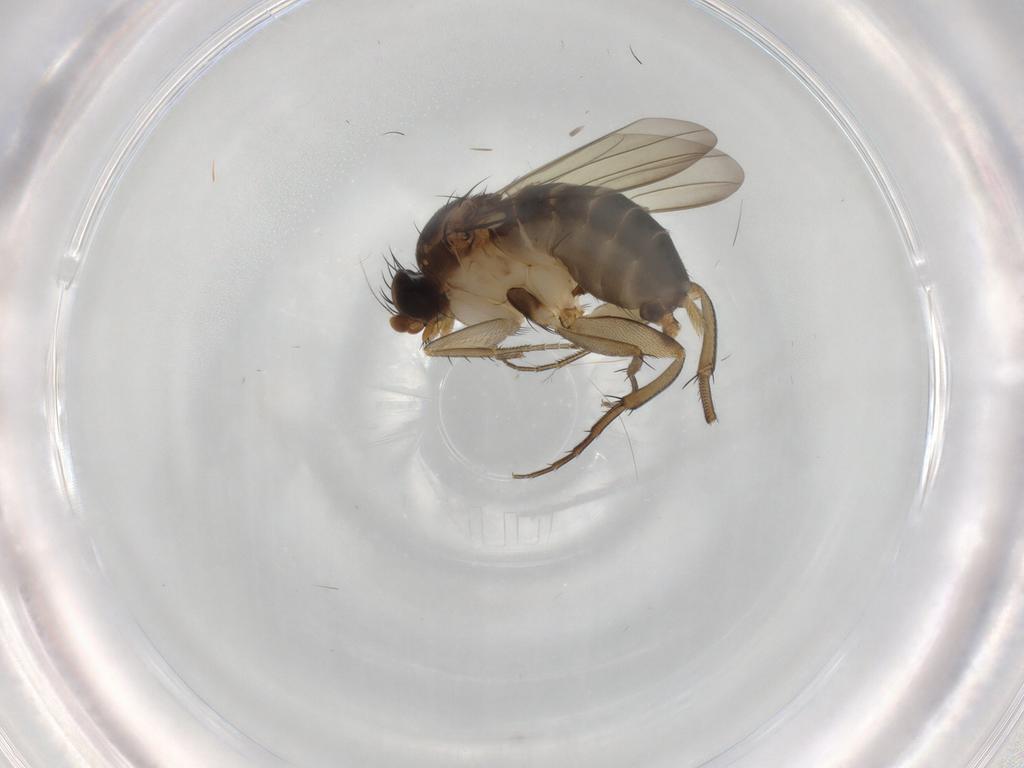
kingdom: Animalia
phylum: Arthropoda
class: Insecta
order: Diptera
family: Phoridae
